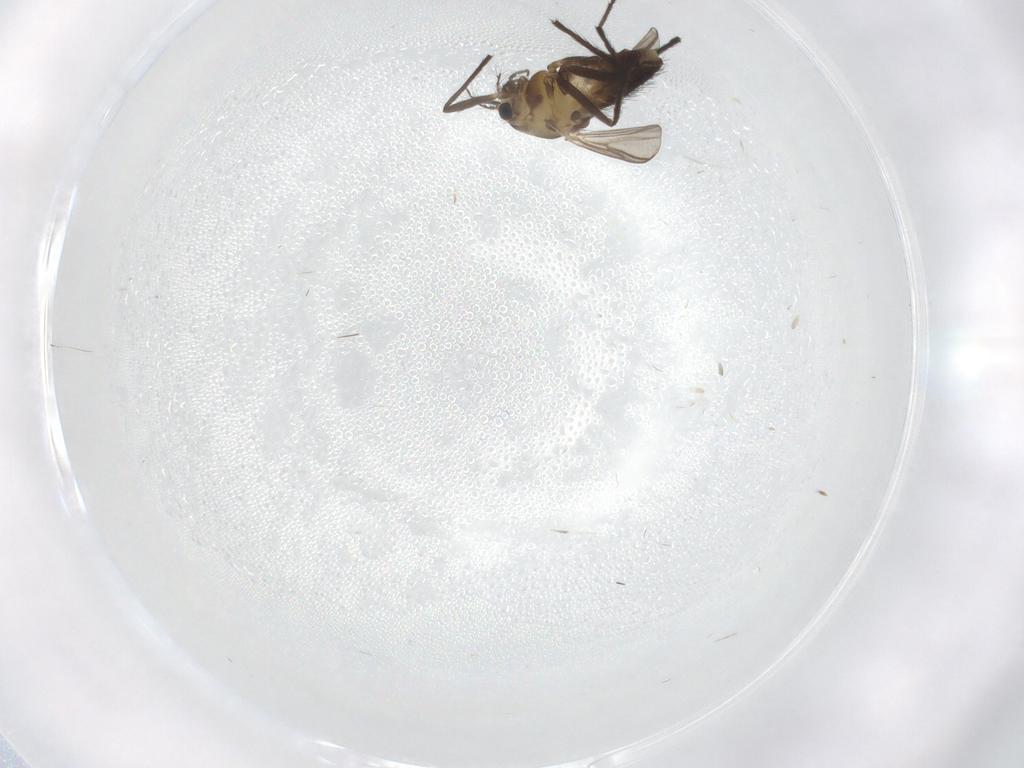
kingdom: Animalia
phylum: Arthropoda
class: Insecta
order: Diptera
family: Chironomidae
